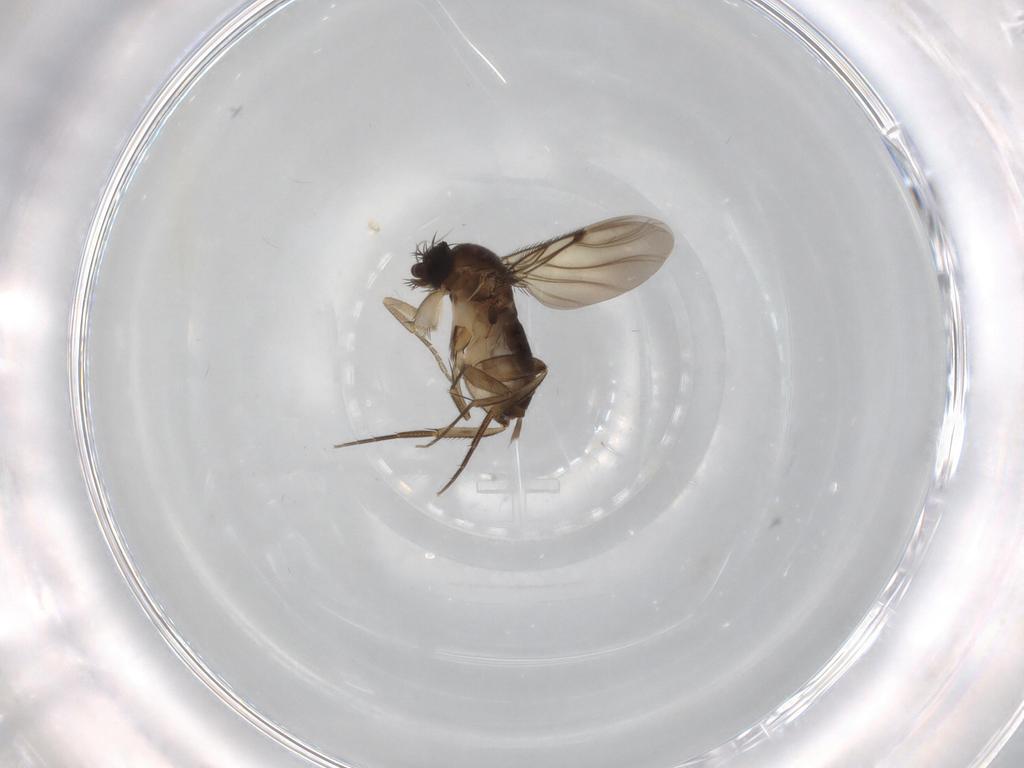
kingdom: Animalia
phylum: Arthropoda
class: Insecta
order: Diptera
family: Phoridae
